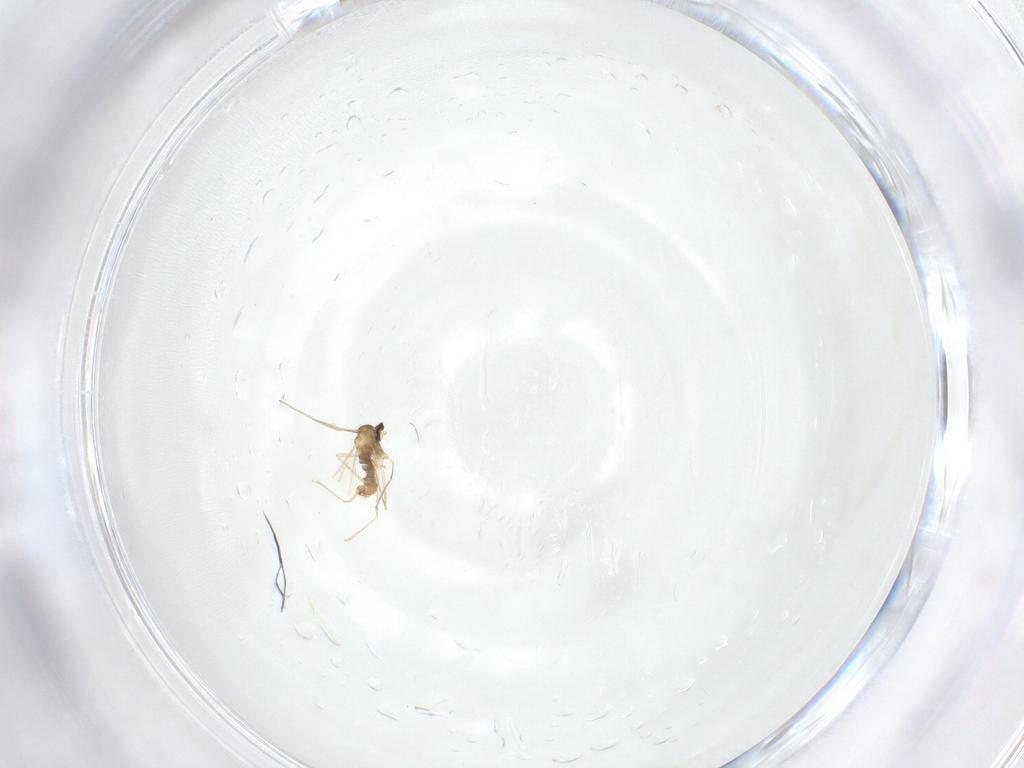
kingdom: Animalia
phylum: Arthropoda
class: Insecta
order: Diptera
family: Cecidomyiidae
